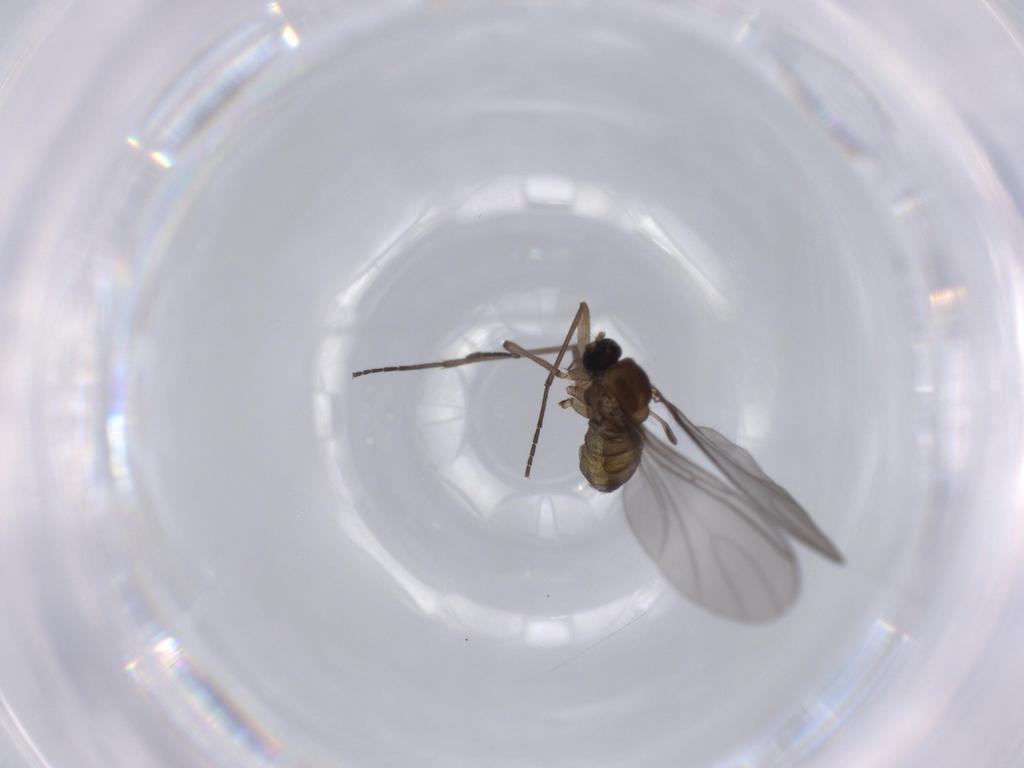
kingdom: Animalia
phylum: Arthropoda
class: Insecta
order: Diptera
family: Sciaridae
